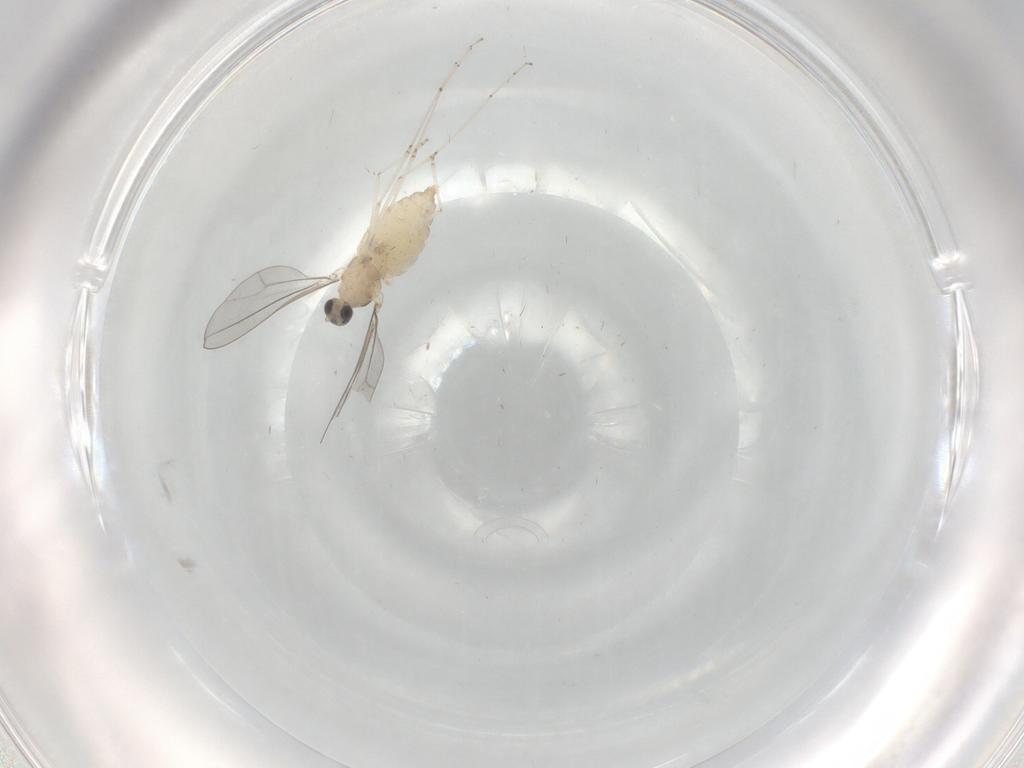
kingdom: Animalia
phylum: Arthropoda
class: Insecta
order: Diptera
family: Cecidomyiidae
